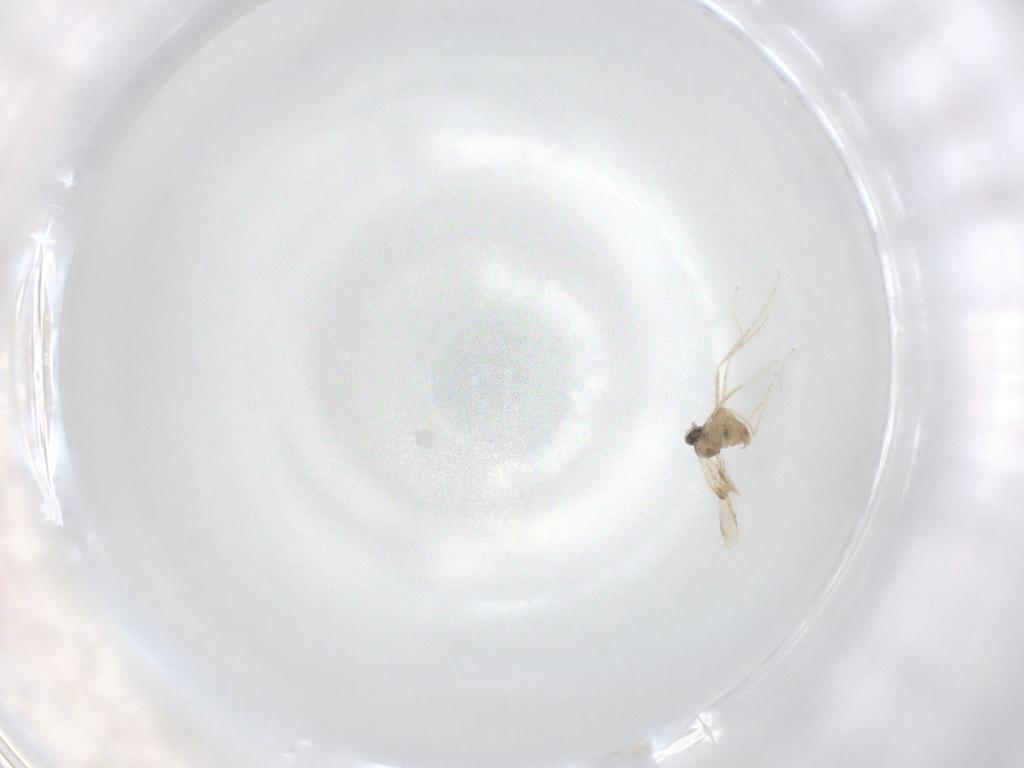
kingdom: Animalia
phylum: Arthropoda
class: Insecta
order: Diptera
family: Cecidomyiidae
